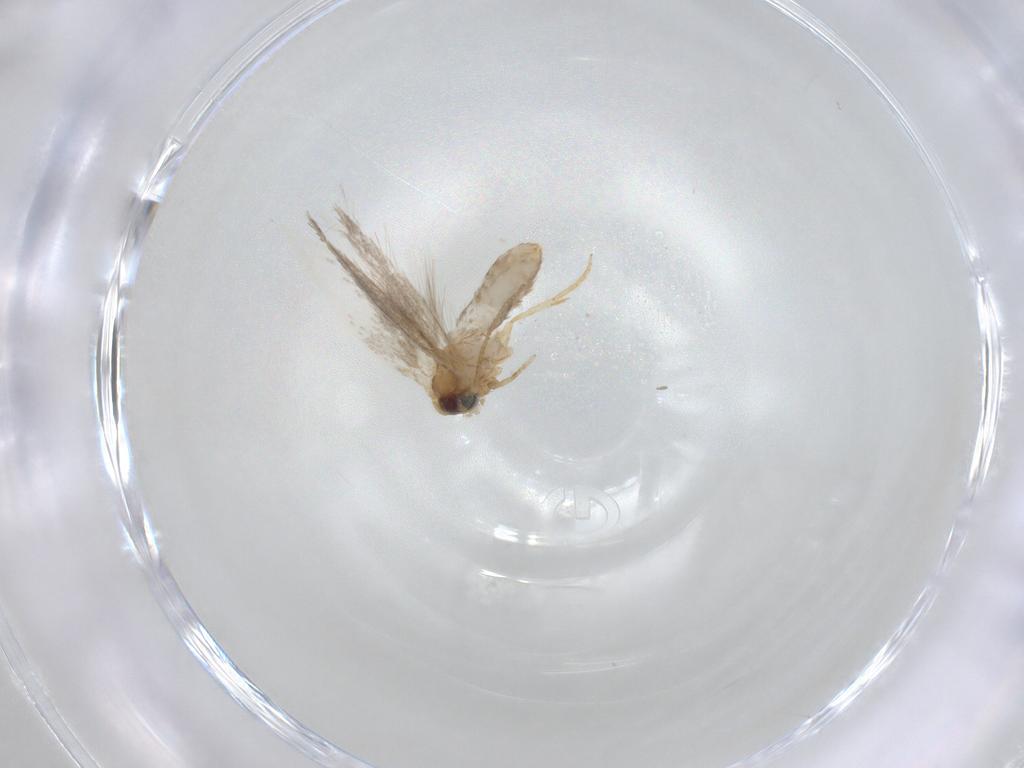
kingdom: Animalia
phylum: Arthropoda
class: Insecta
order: Lepidoptera
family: Nepticulidae
